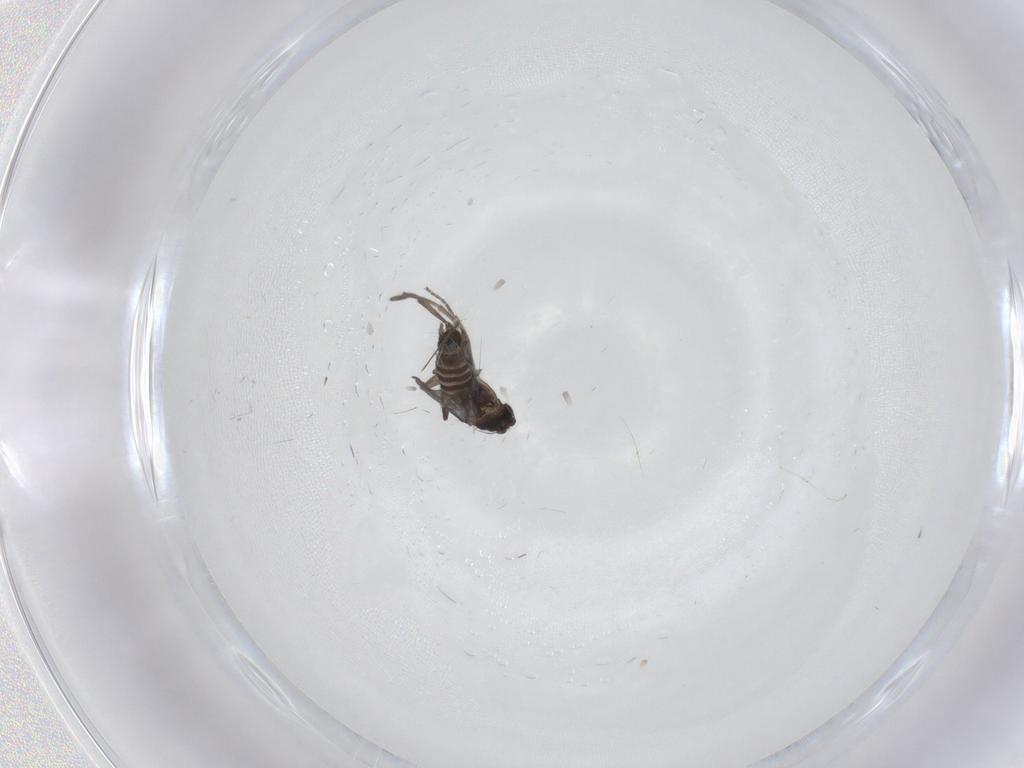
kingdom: Animalia
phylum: Arthropoda
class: Insecta
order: Diptera
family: Phoridae
